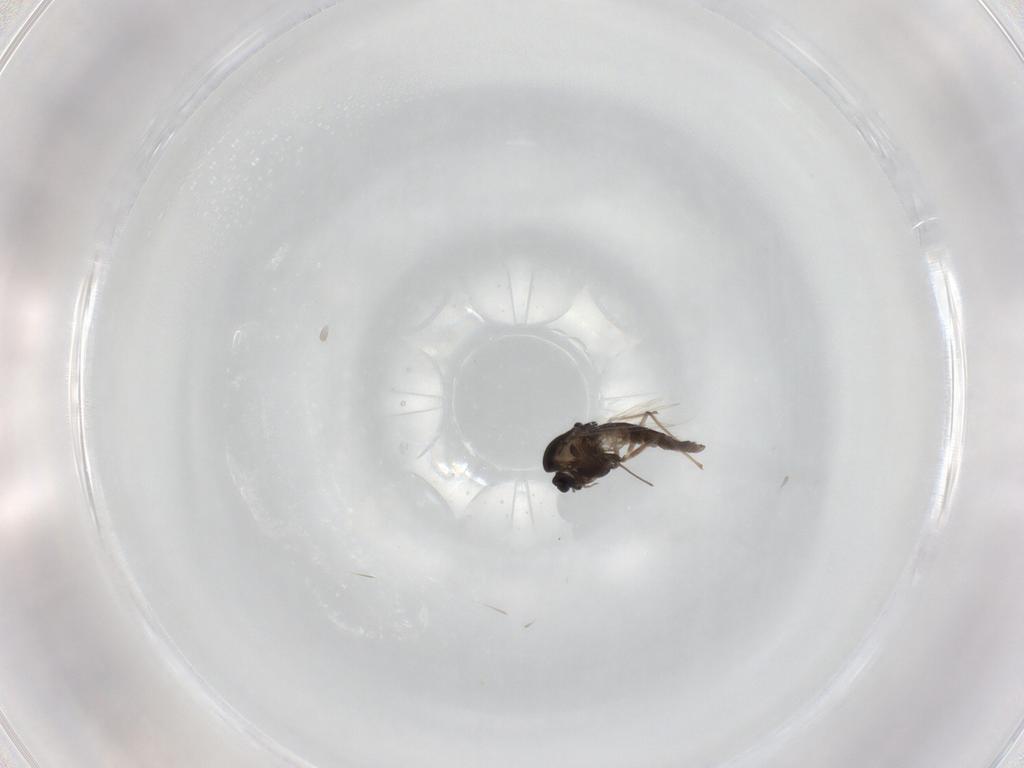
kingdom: Animalia
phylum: Arthropoda
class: Insecta
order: Diptera
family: Chironomidae
